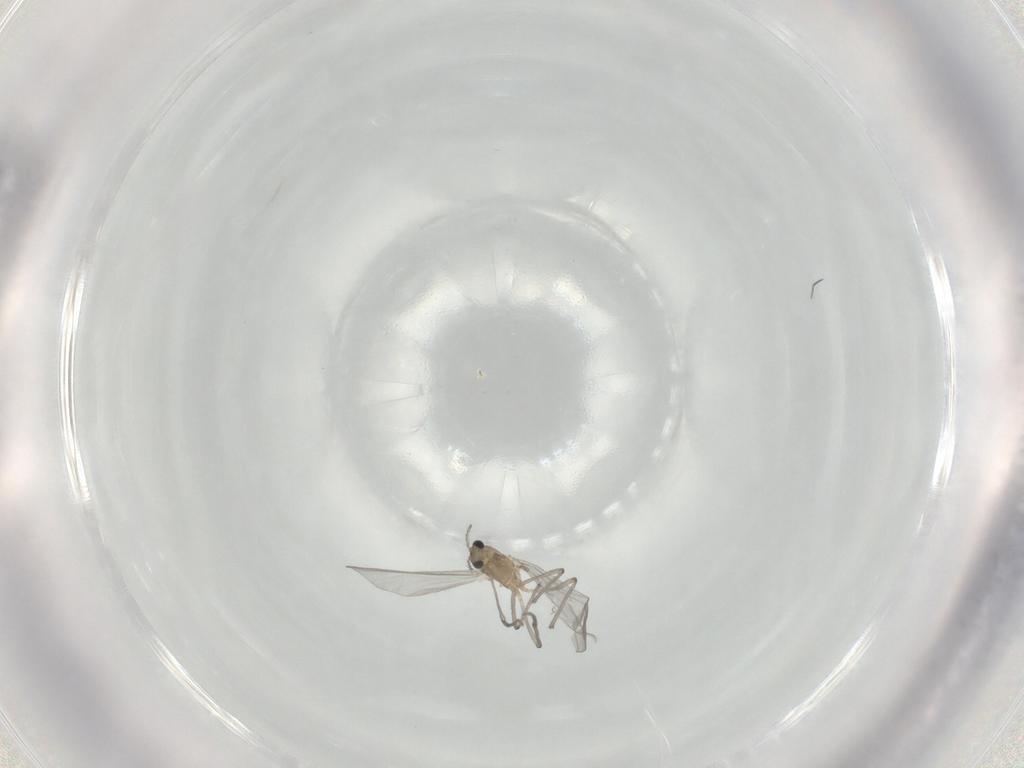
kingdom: Animalia
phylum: Arthropoda
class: Insecta
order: Diptera
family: Chironomidae
